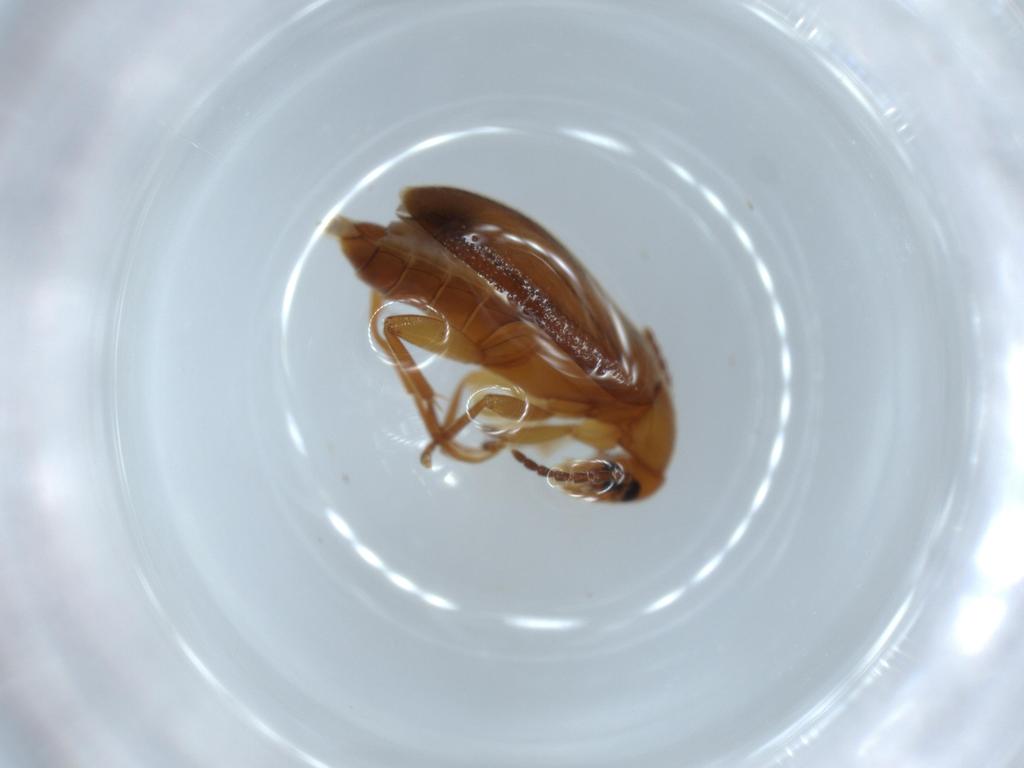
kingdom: Animalia
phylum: Arthropoda
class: Insecta
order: Coleoptera
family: Scraptiidae
